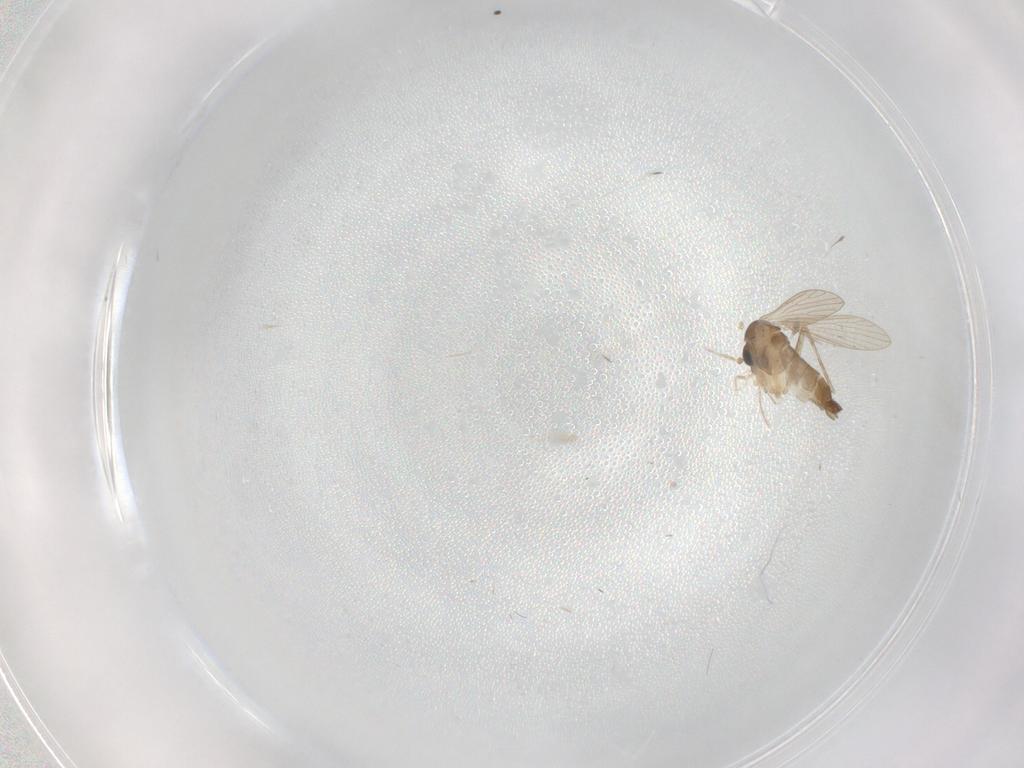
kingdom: Animalia
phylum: Arthropoda
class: Insecta
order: Diptera
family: Psychodidae
